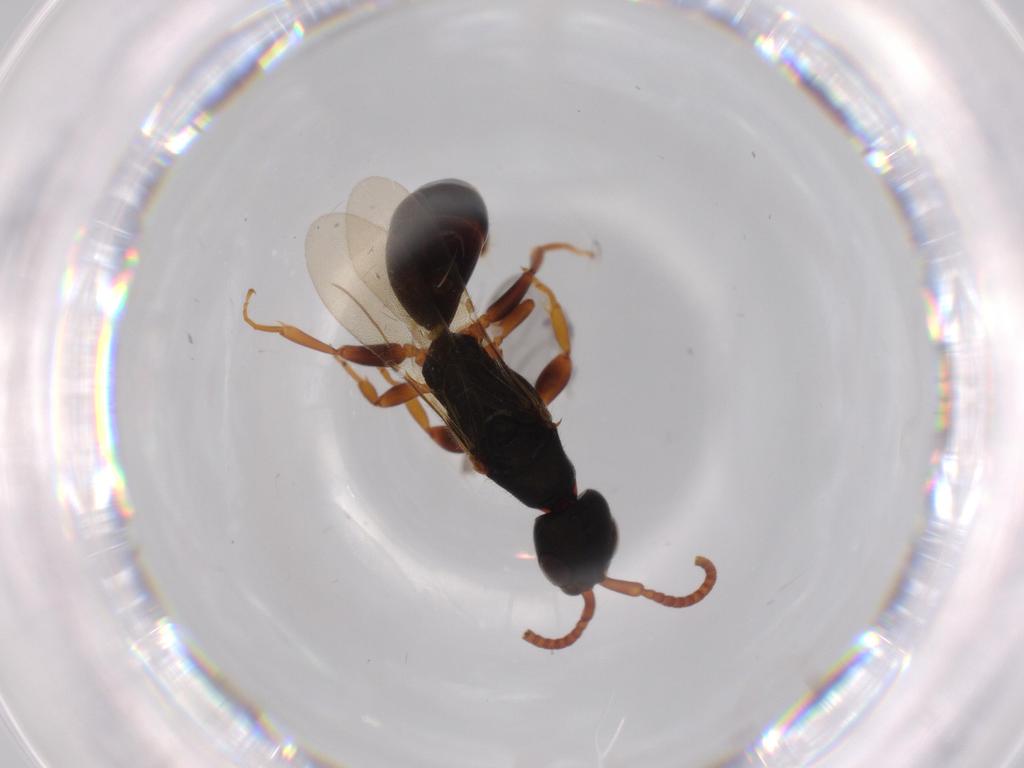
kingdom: Animalia
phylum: Arthropoda
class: Insecta
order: Hymenoptera
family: Bethylidae
